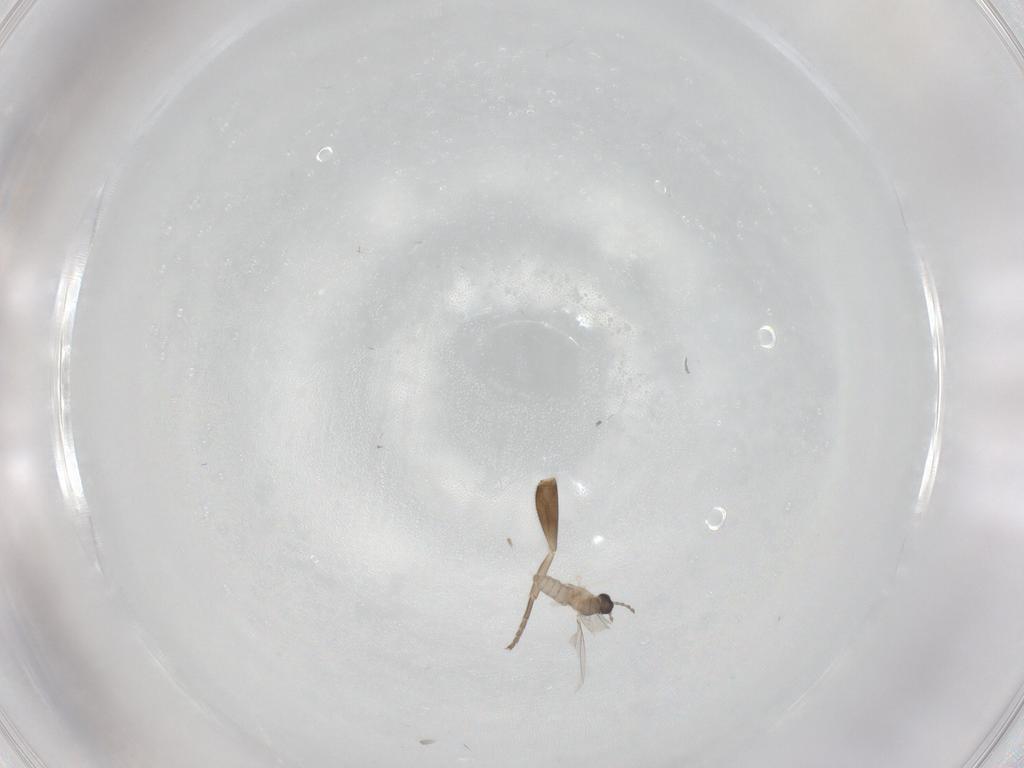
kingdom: Animalia
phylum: Arthropoda
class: Insecta
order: Diptera
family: Phoridae
